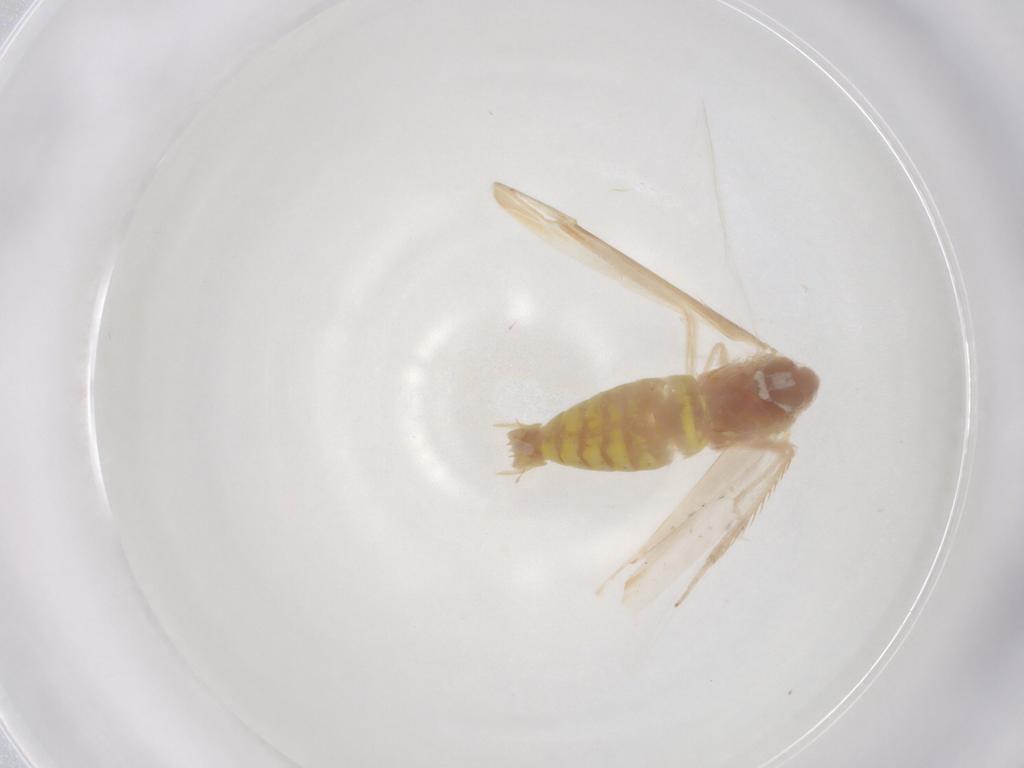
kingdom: Animalia
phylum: Arthropoda
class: Insecta
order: Hemiptera
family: Cicadellidae
